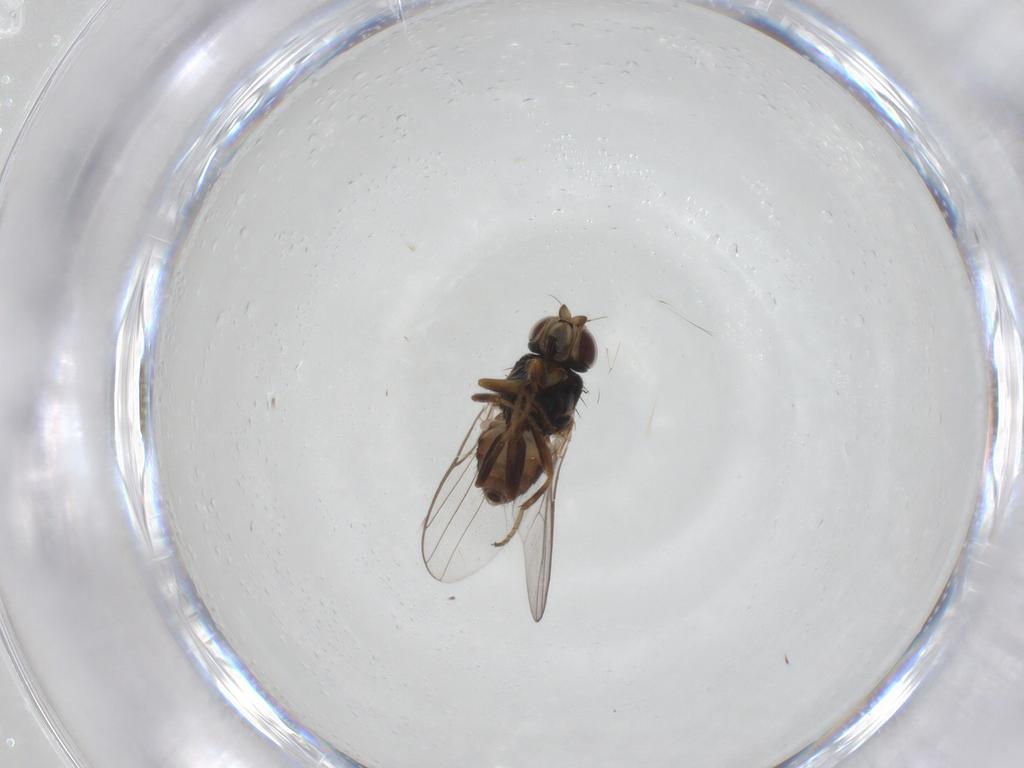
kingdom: Animalia
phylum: Arthropoda
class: Insecta
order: Diptera
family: Chloropidae
